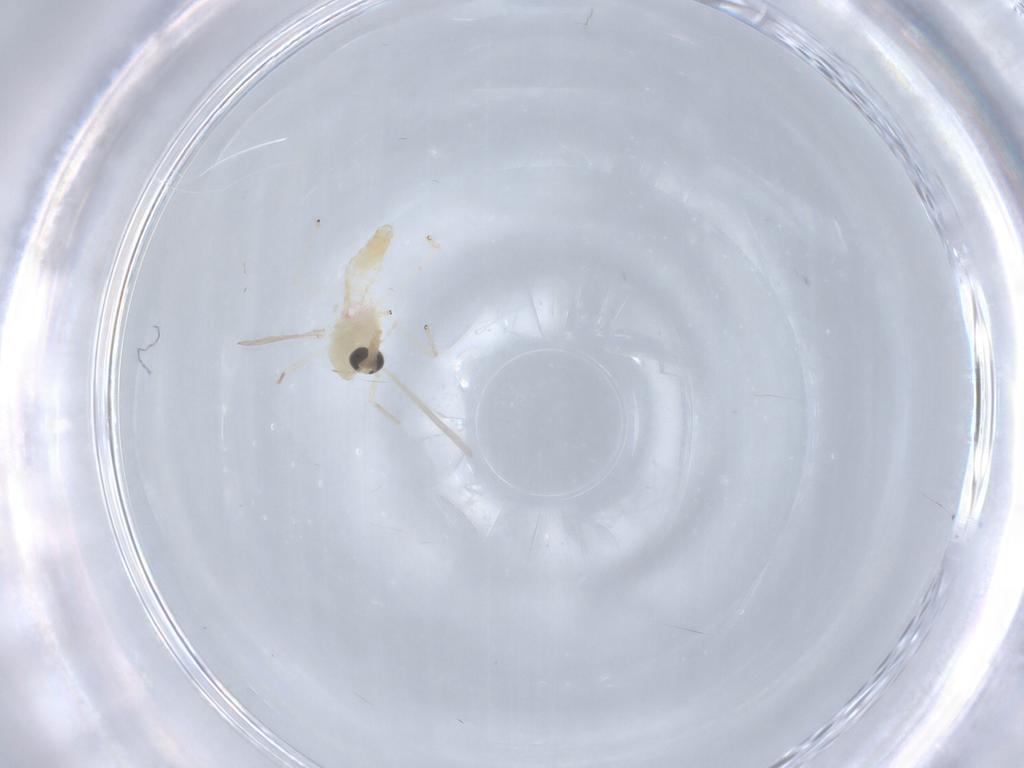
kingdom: Animalia
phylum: Arthropoda
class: Insecta
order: Diptera
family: Chironomidae
